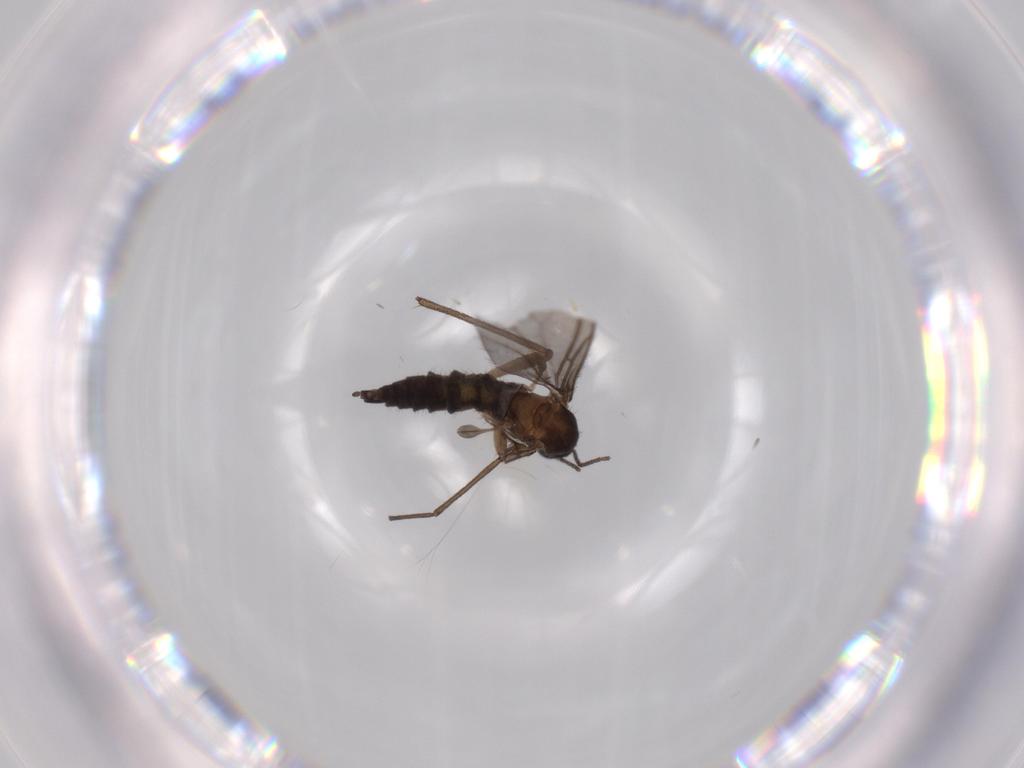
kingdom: Animalia
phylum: Arthropoda
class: Insecta
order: Diptera
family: Sciaridae
